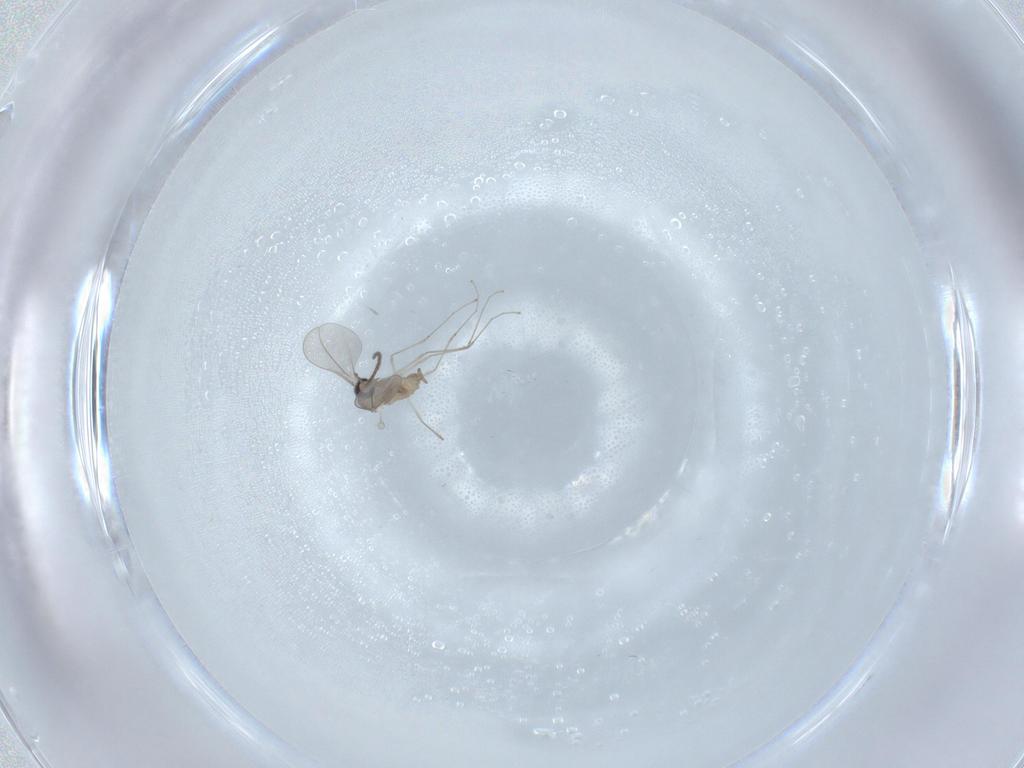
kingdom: Animalia
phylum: Arthropoda
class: Insecta
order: Diptera
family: Cecidomyiidae
